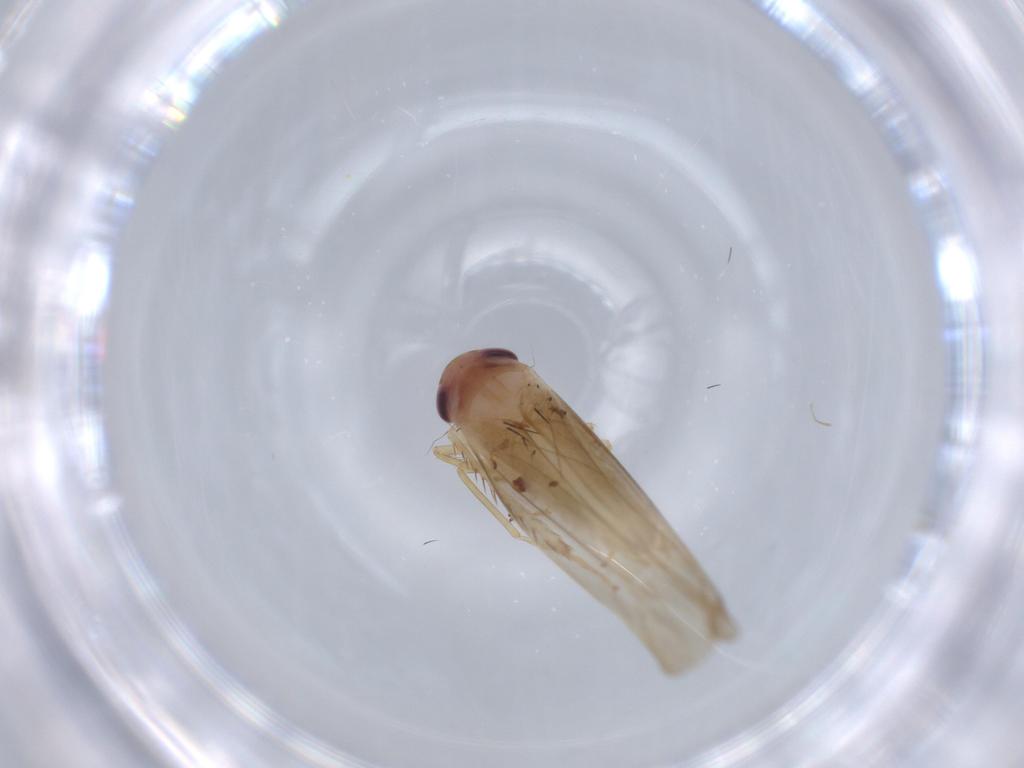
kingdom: Animalia
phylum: Arthropoda
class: Insecta
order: Hemiptera
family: Cicadellidae
